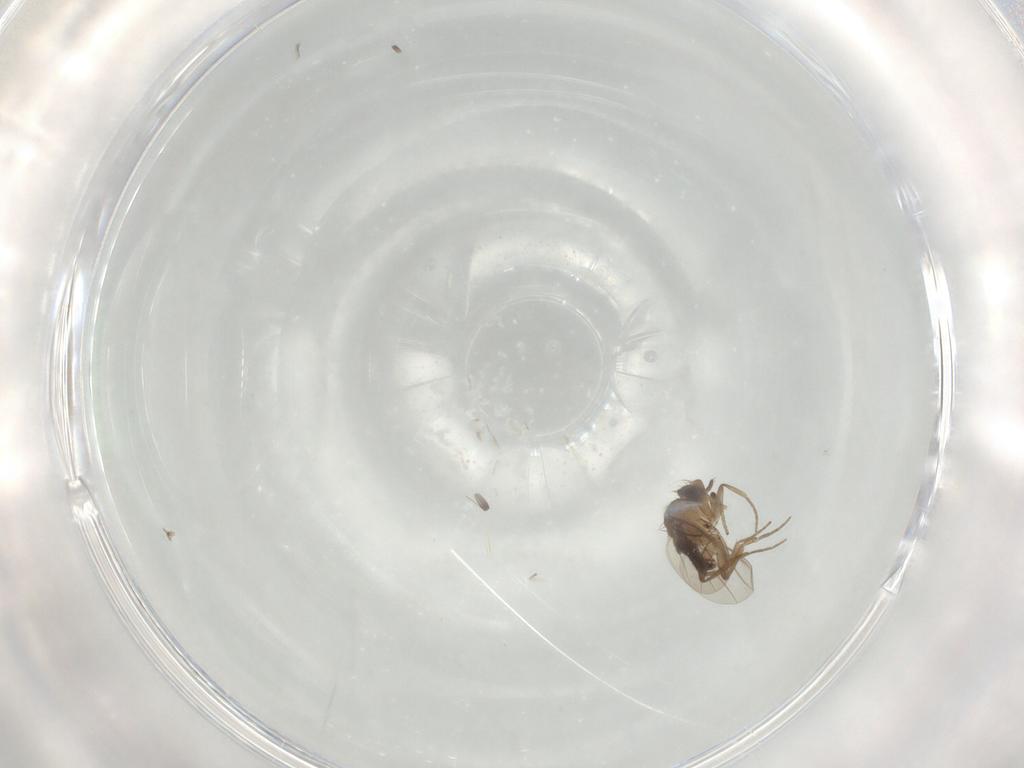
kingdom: Animalia
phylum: Arthropoda
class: Insecta
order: Diptera
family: Phoridae
